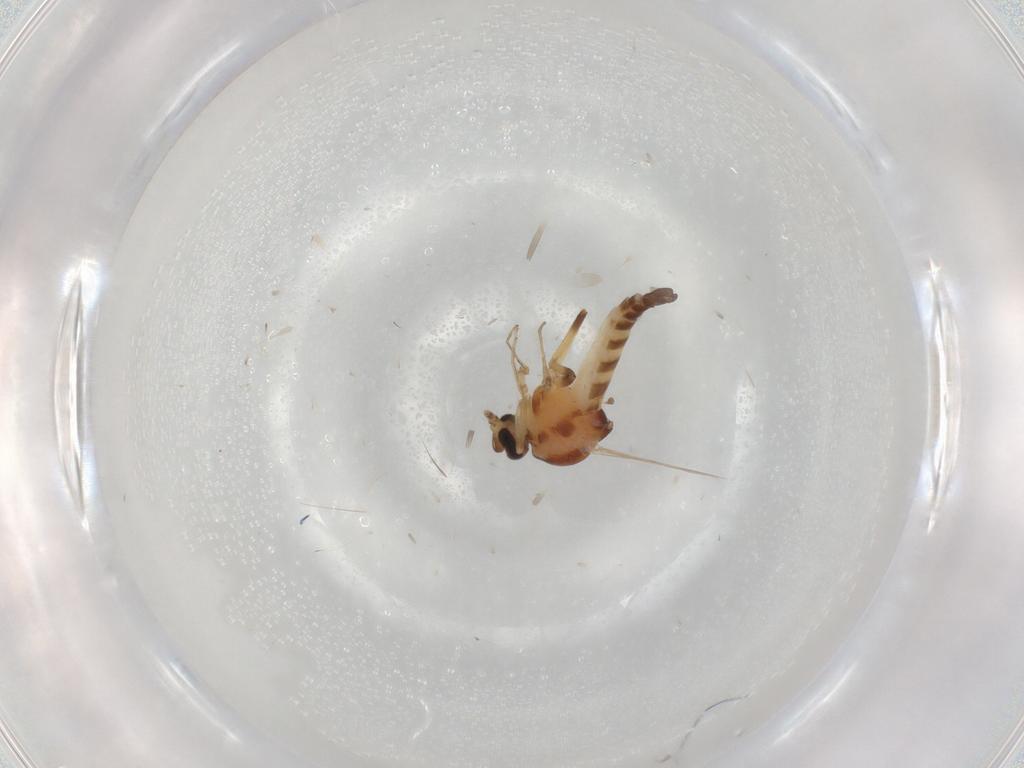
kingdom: Animalia
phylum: Arthropoda
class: Insecta
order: Diptera
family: Ceratopogonidae
